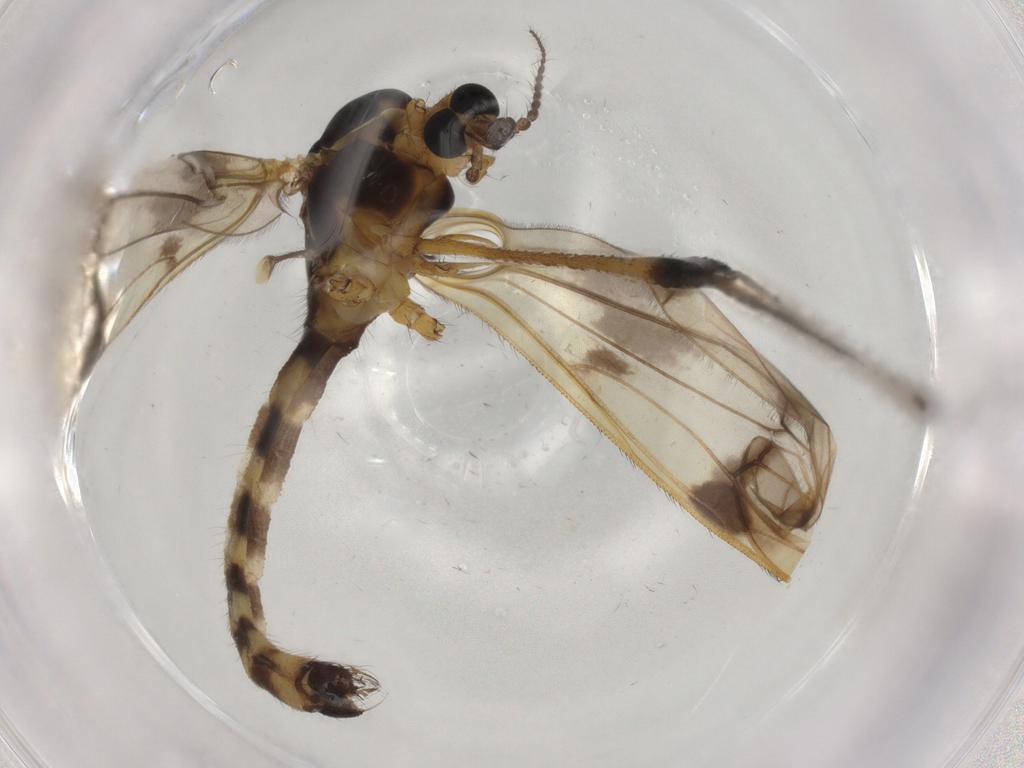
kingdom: Animalia
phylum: Arthropoda
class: Insecta
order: Diptera
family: Limoniidae
